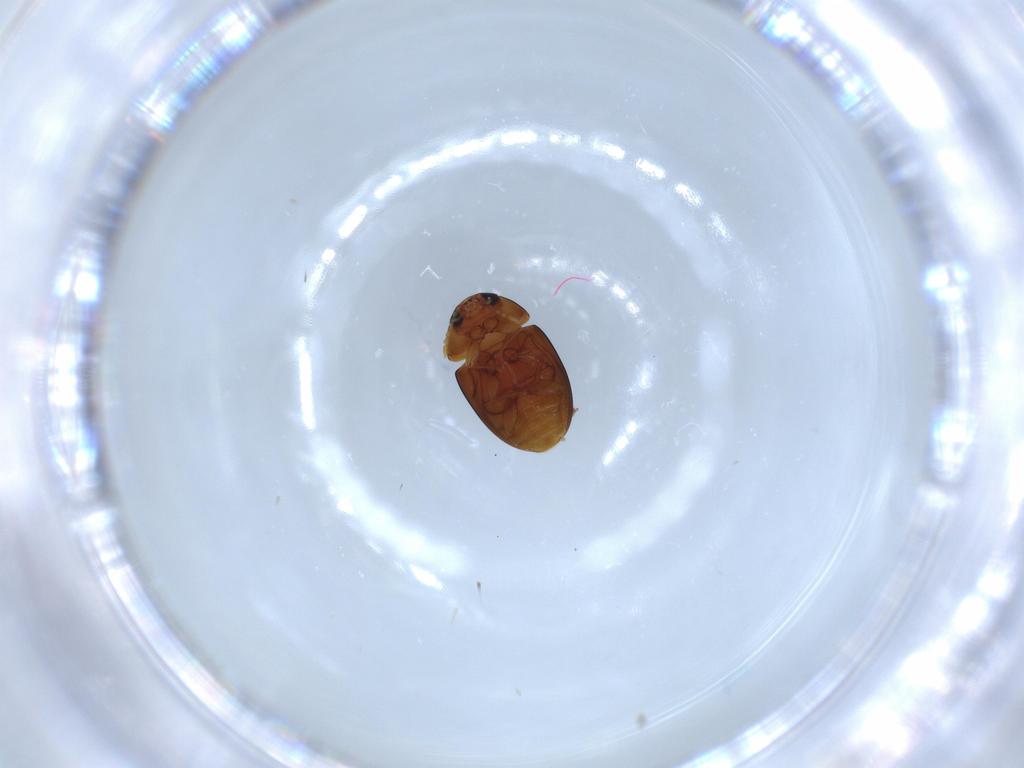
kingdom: Animalia
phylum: Arthropoda
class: Insecta
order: Coleoptera
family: Phalacridae
